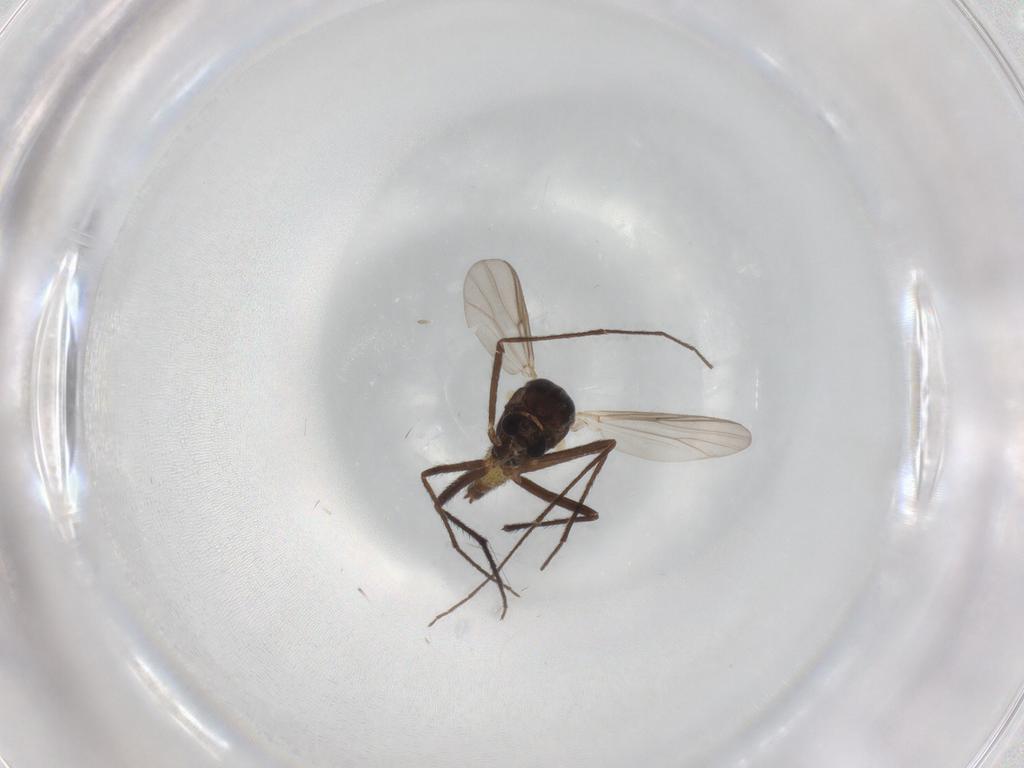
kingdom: Animalia
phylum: Arthropoda
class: Insecta
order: Diptera
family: Chironomidae
